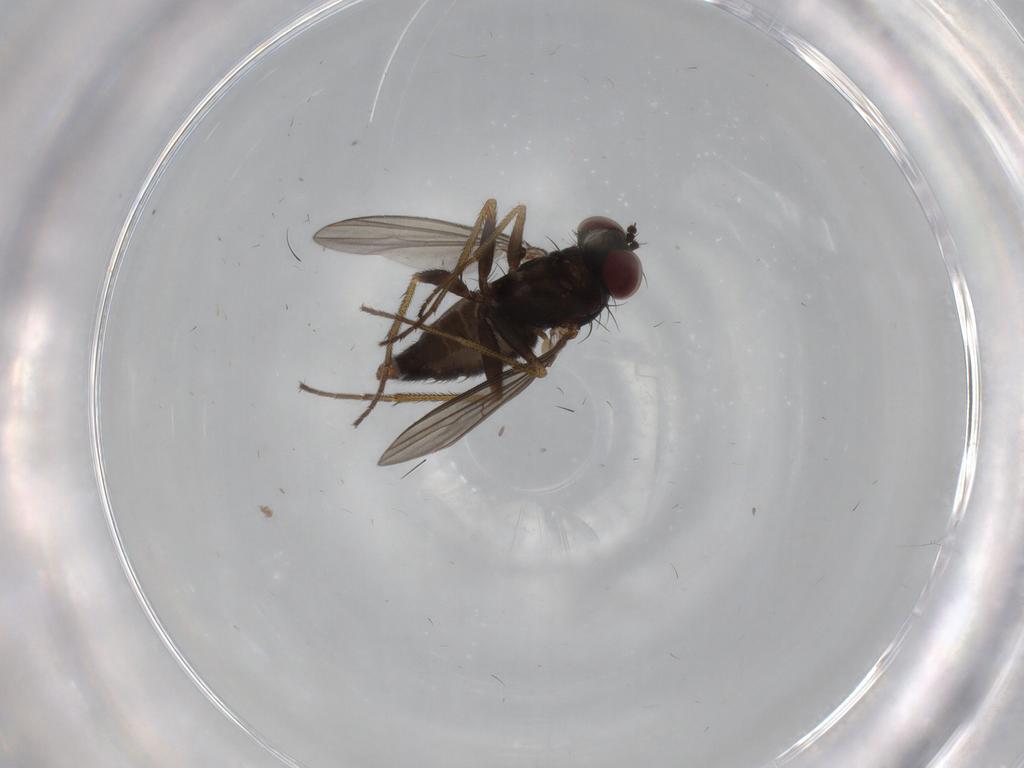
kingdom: Animalia
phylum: Arthropoda
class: Insecta
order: Diptera
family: Dolichopodidae
